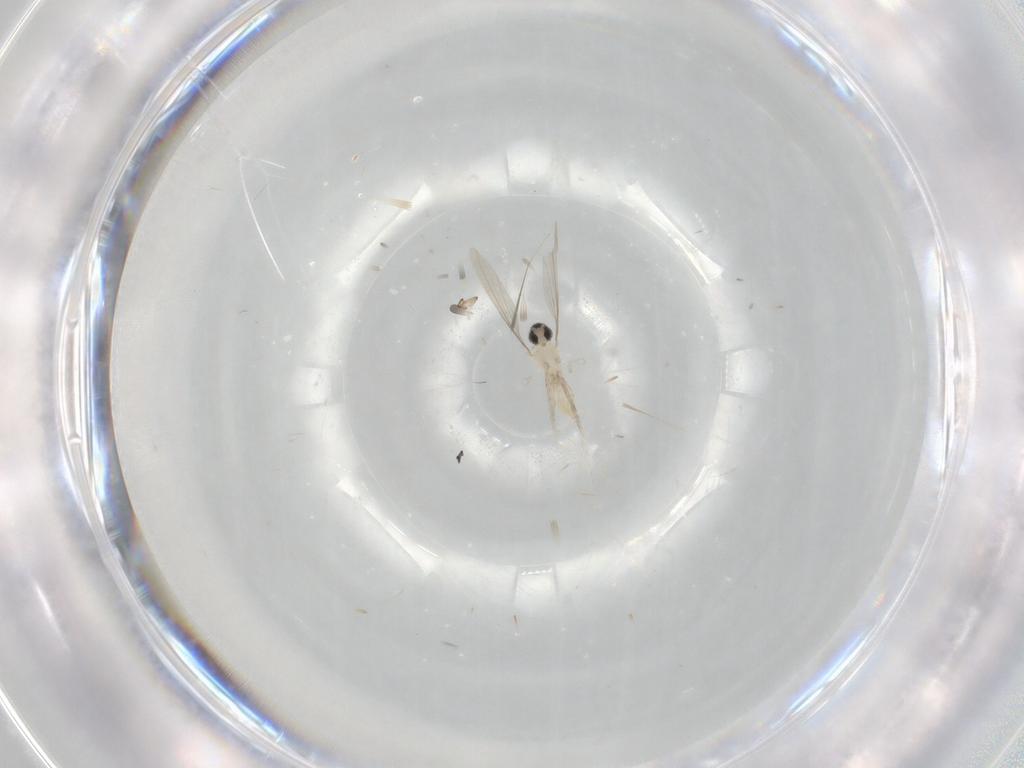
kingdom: Animalia
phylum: Arthropoda
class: Insecta
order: Diptera
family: Cecidomyiidae
